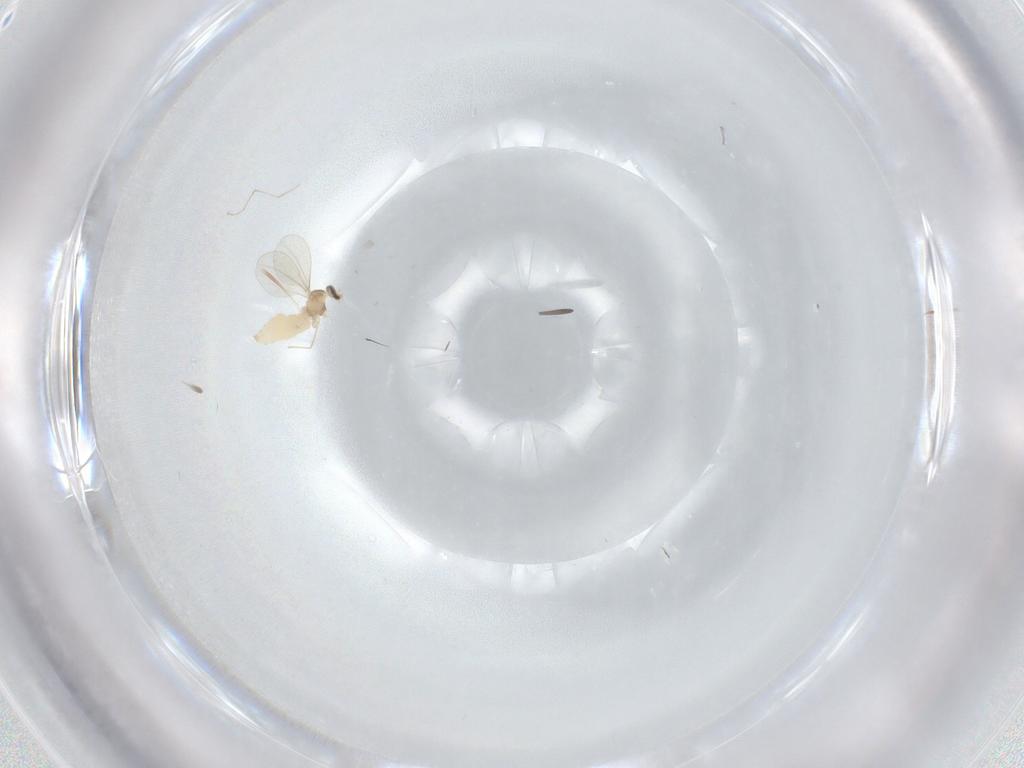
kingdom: Animalia
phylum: Arthropoda
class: Insecta
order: Diptera
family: Cecidomyiidae
